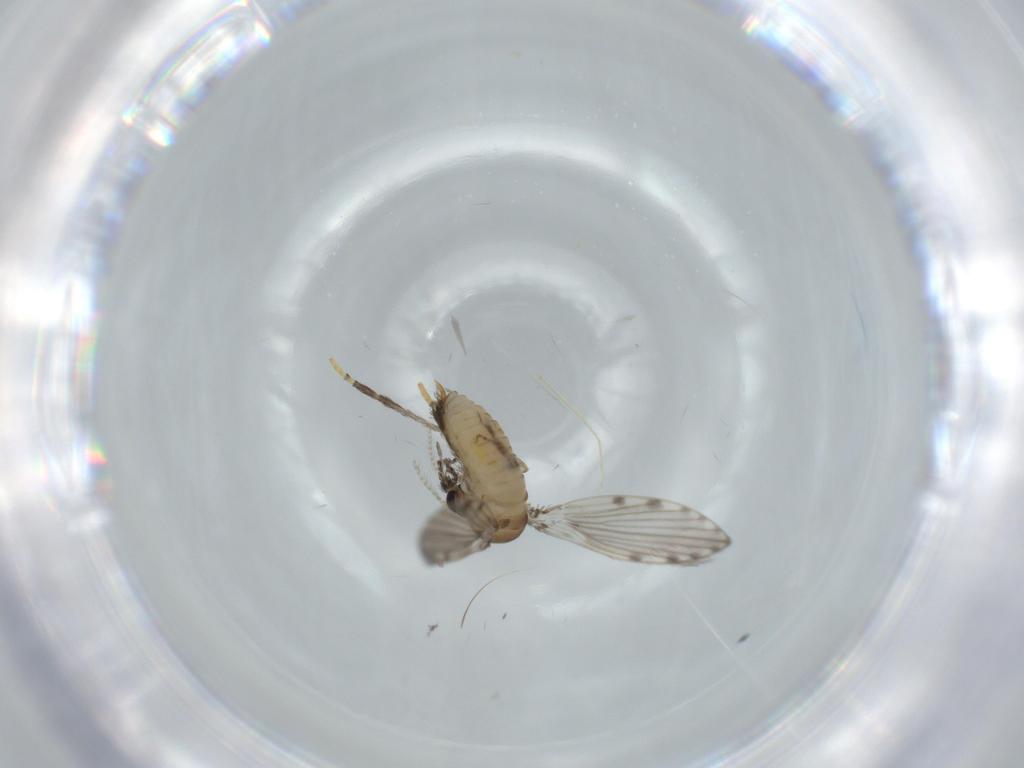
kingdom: Animalia
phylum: Arthropoda
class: Insecta
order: Diptera
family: Psychodidae
